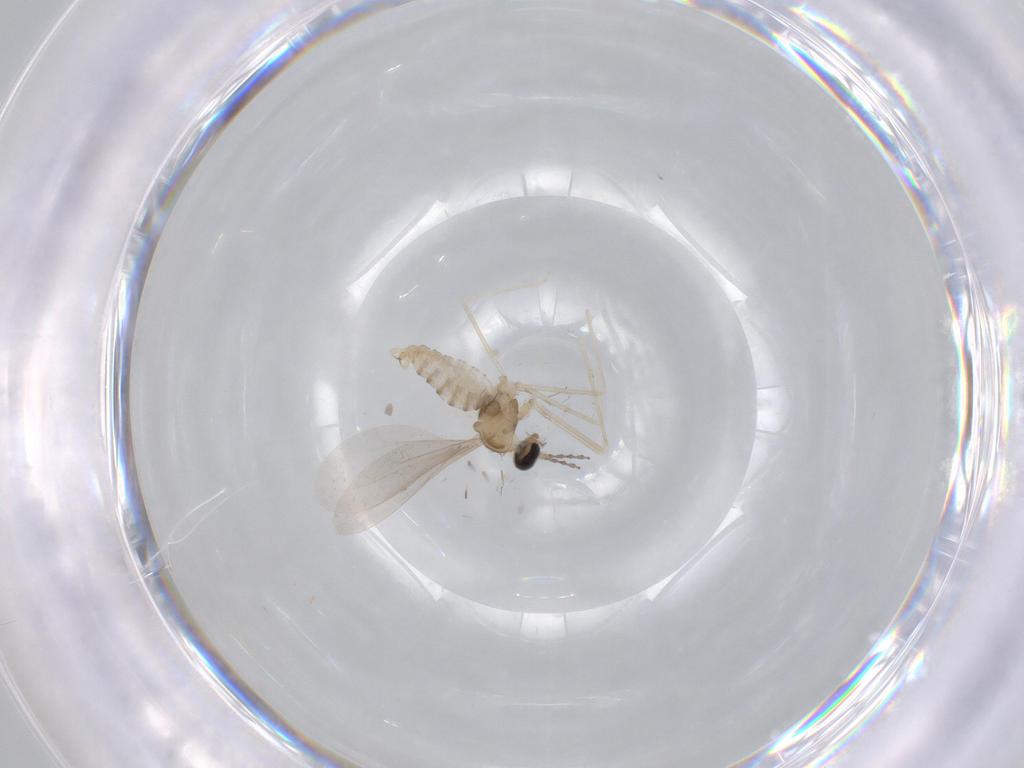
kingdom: Animalia
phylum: Arthropoda
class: Insecta
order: Diptera
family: Cecidomyiidae
